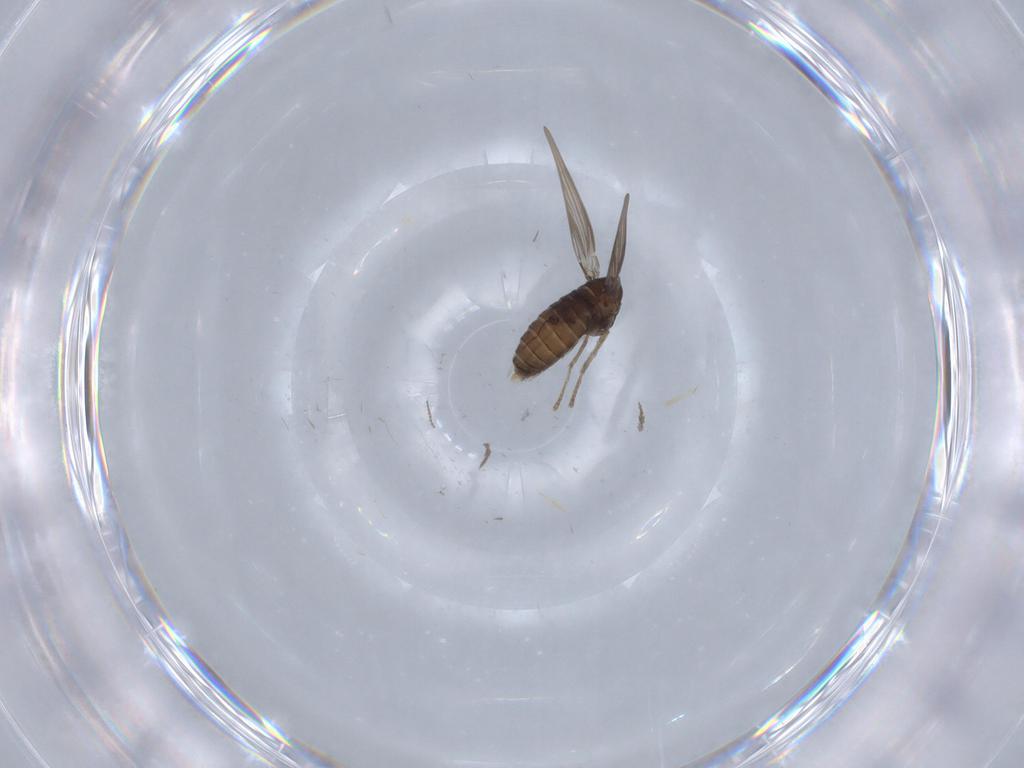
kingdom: Animalia
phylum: Arthropoda
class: Insecta
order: Diptera
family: Psychodidae
